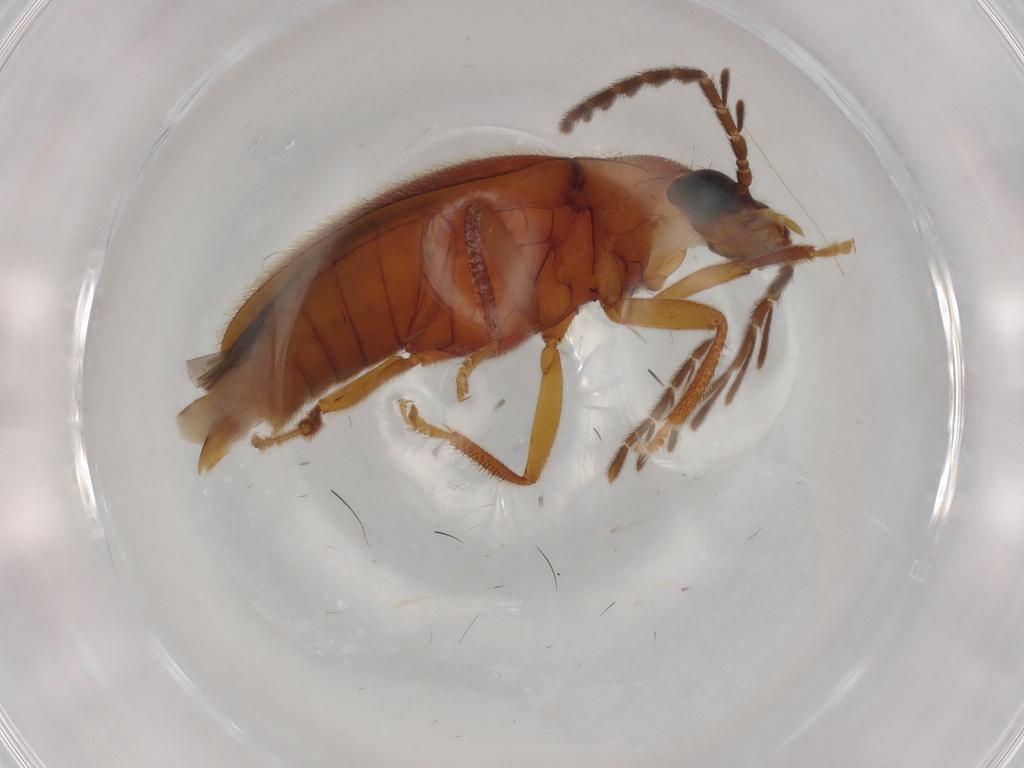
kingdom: Animalia
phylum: Arthropoda
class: Insecta
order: Coleoptera
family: Ptilodactylidae
